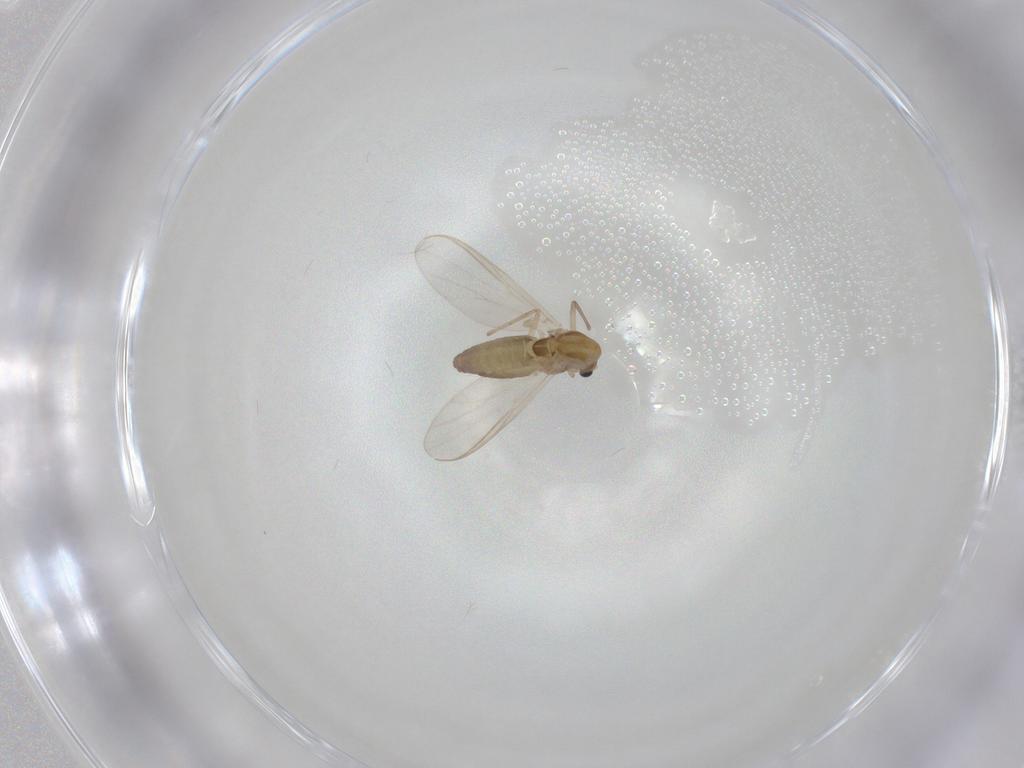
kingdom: Animalia
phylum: Arthropoda
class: Insecta
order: Diptera
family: Chironomidae
